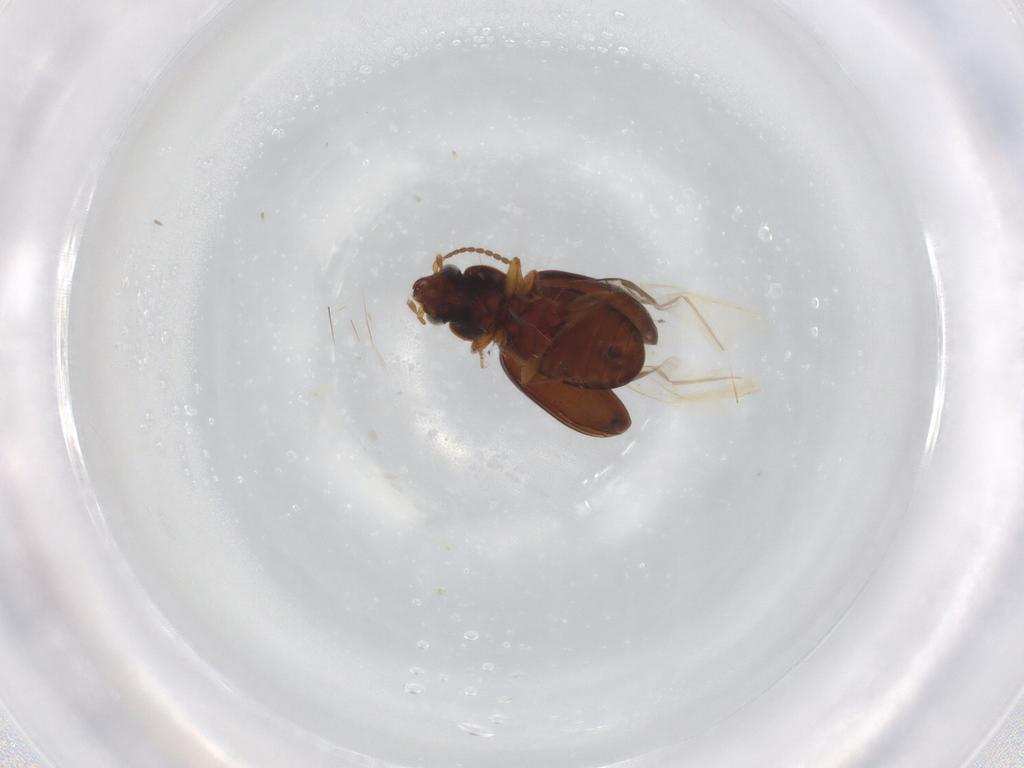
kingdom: Animalia
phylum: Arthropoda
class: Insecta
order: Coleoptera
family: Carabidae
